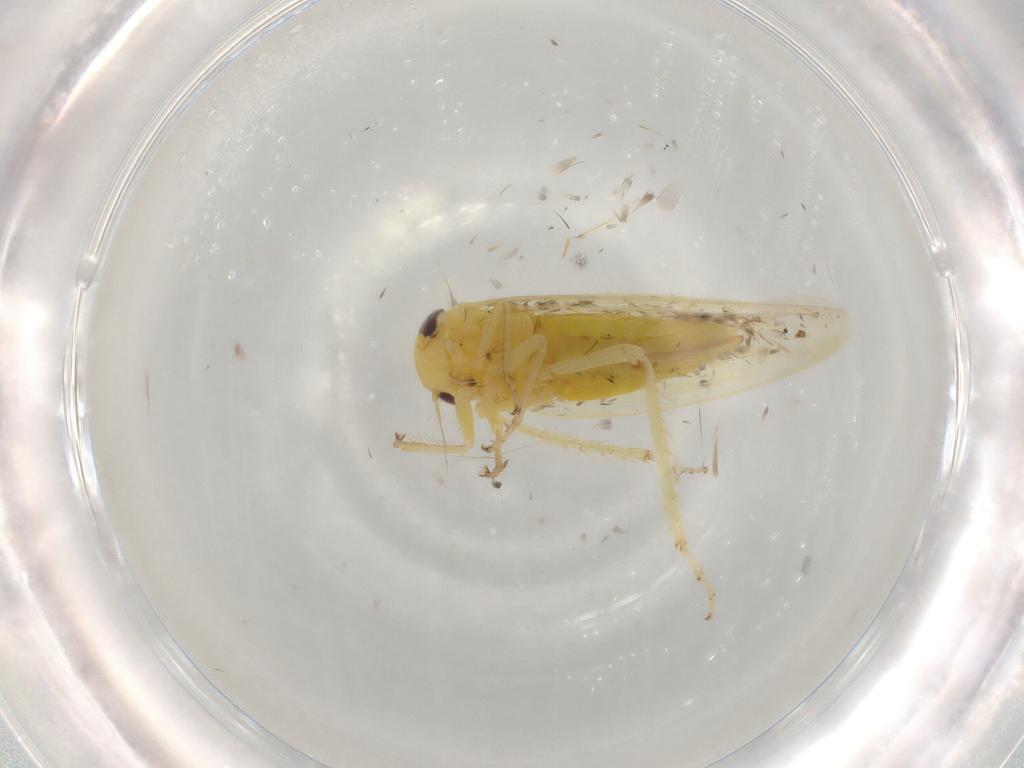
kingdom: Animalia
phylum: Arthropoda
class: Insecta
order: Hemiptera
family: Cicadellidae
